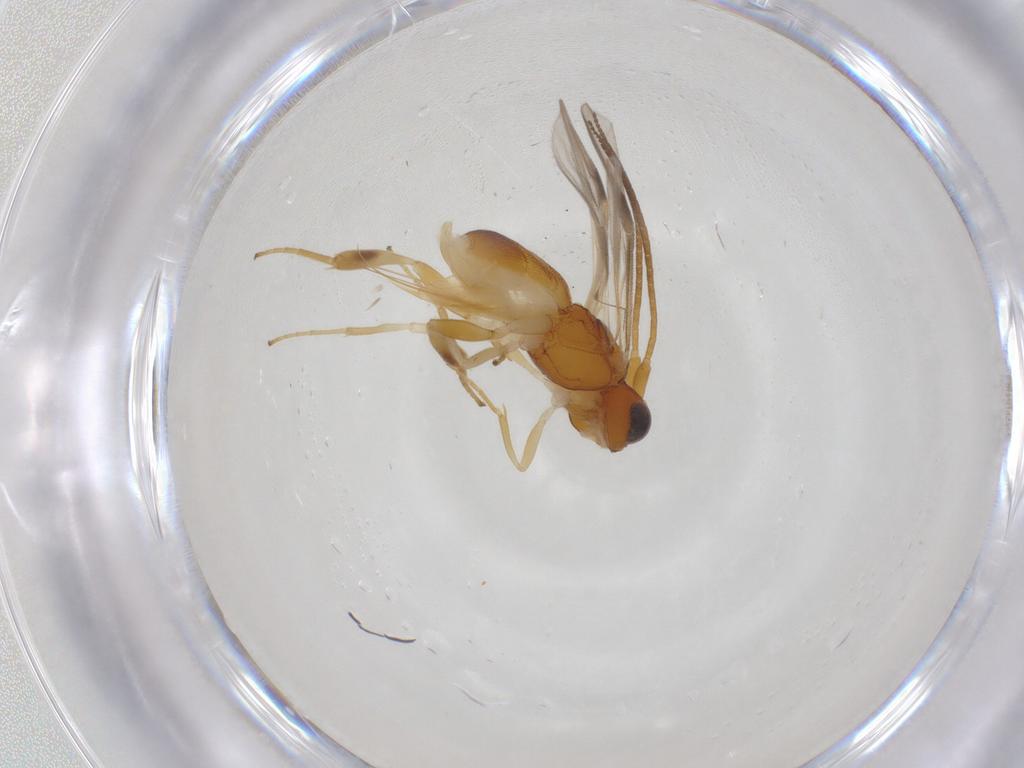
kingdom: Animalia
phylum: Arthropoda
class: Insecta
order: Hymenoptera
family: Braconidae
